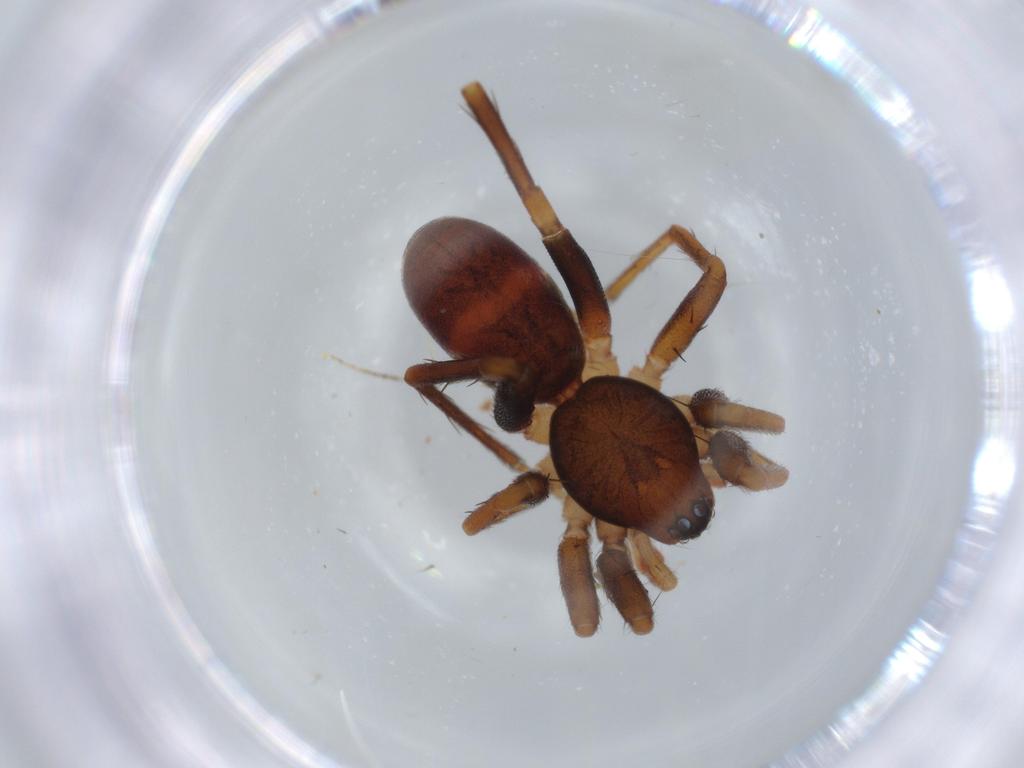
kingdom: Animalia
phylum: Arthropoda
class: Arachnida
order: Araneae
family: Corinnidae
